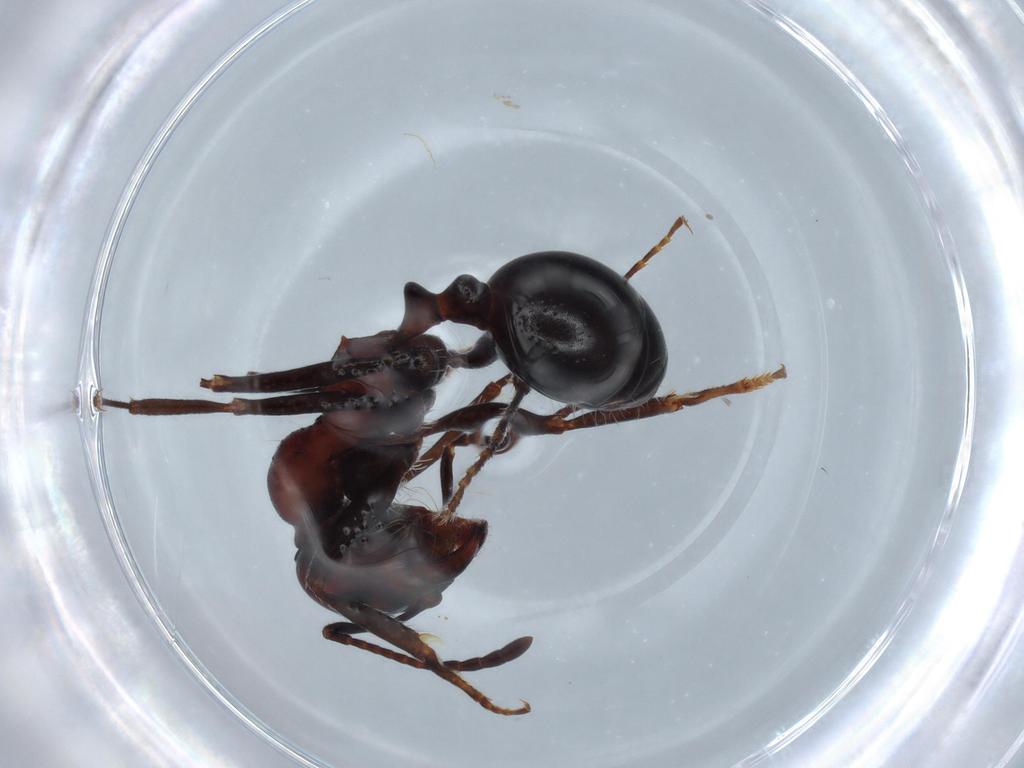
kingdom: Animalia
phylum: Arthropoda
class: Insecta
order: Hymenoptera
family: Formicidae
